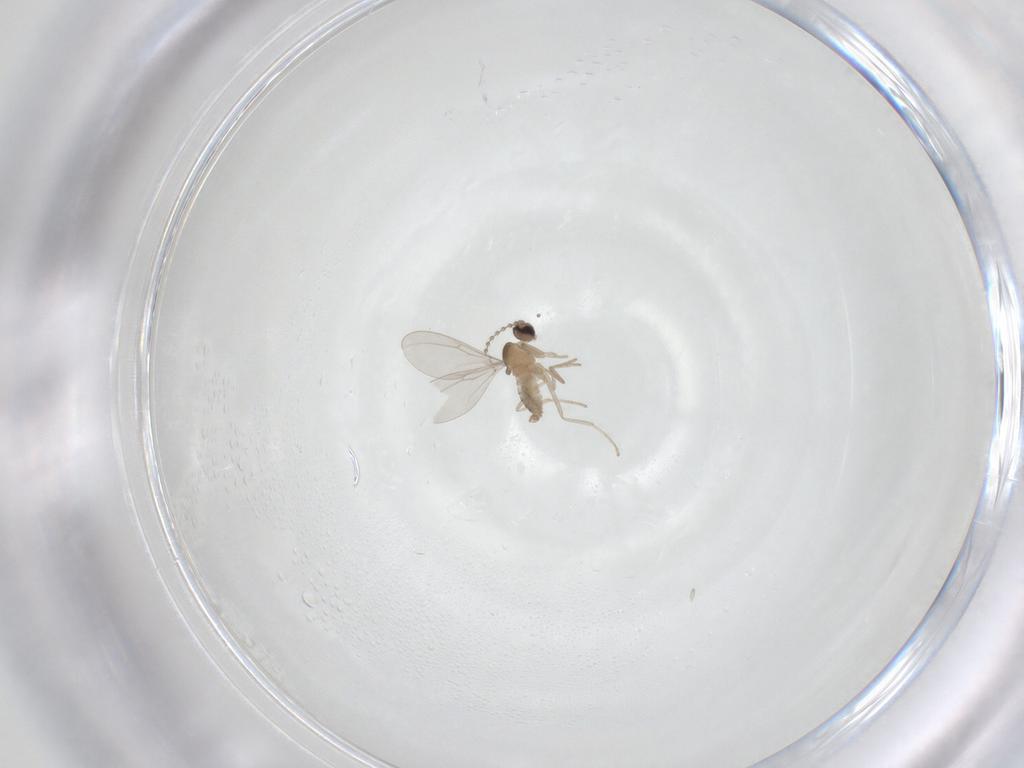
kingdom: Animalia
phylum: Arthropoda
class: Insecta
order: Diptera
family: Cecidomyiidae
